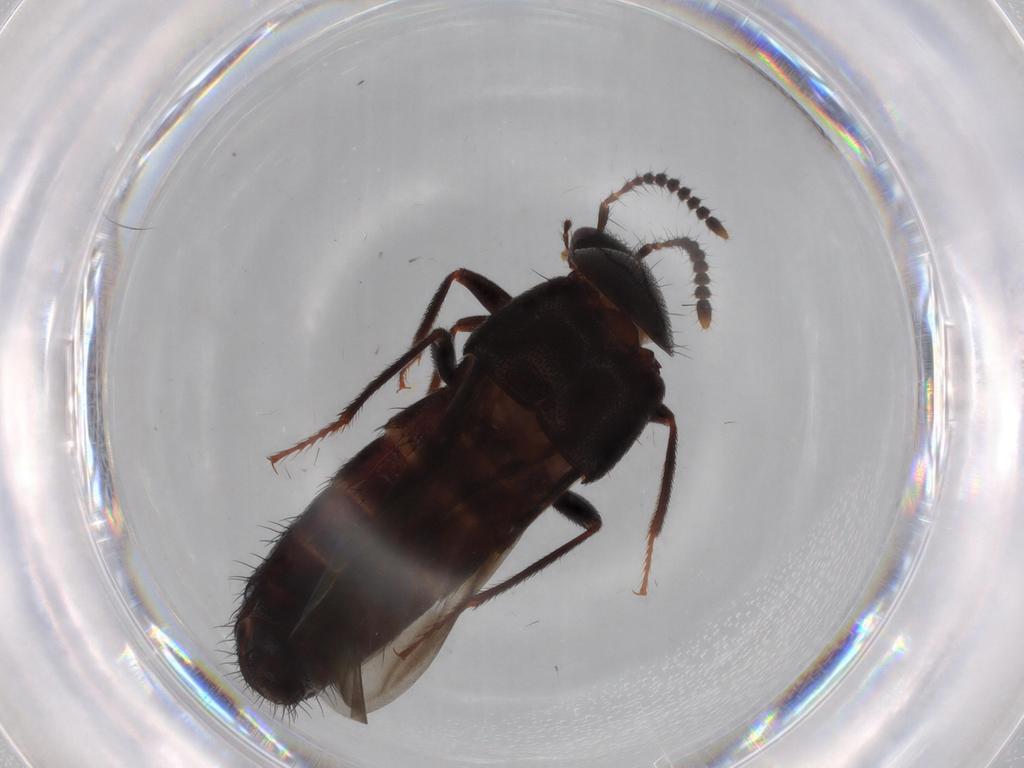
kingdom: Animalia
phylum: Arthropoda
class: Insecta
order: Coleoptera
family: Staphylinidae
